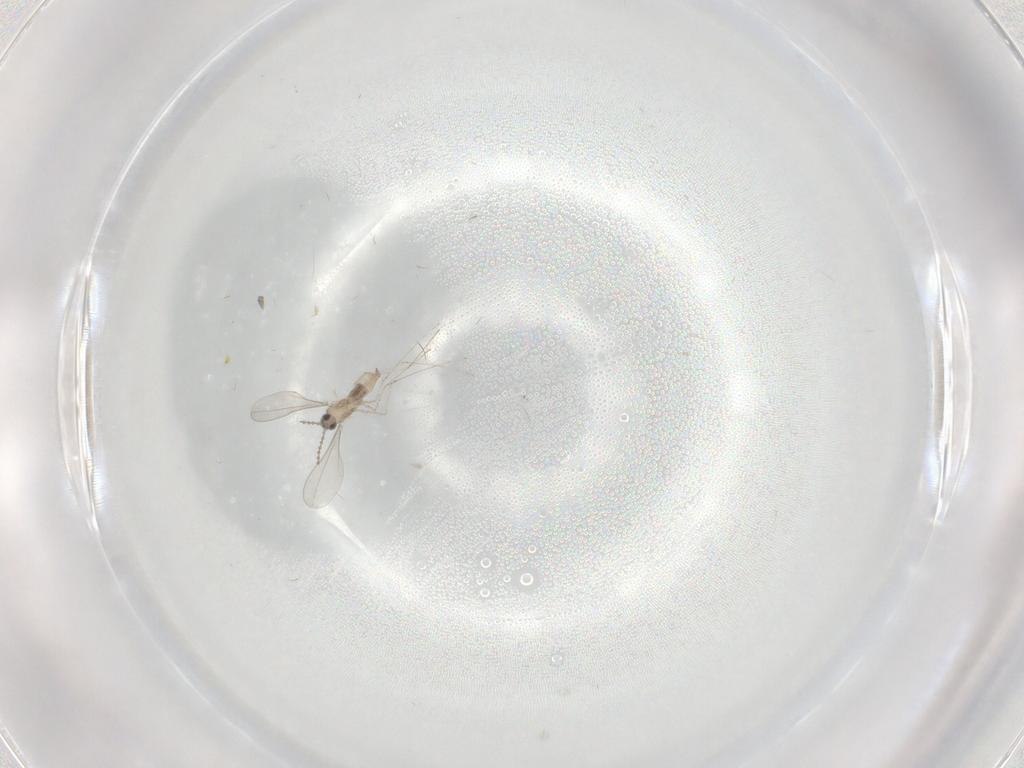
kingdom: Animalia
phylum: Arthropoda
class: Insecta
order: Diptera
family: Cecidomyiidae
